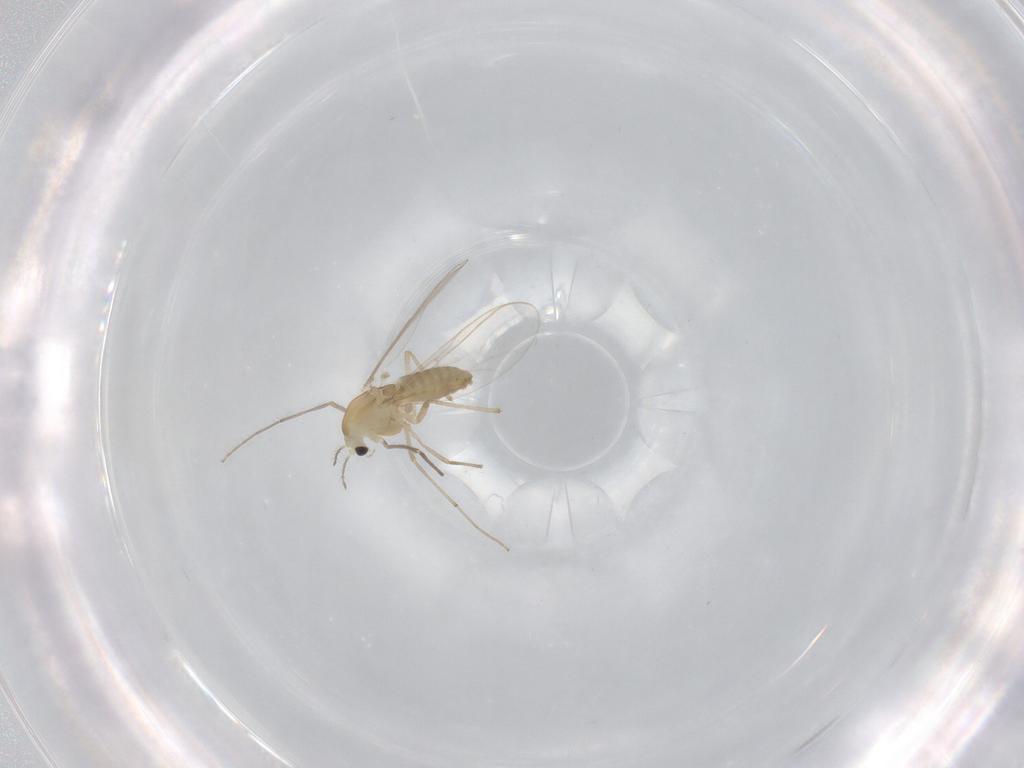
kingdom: Animalia
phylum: Arthropoda
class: Insecta
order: Diptera
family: Chironomidae
